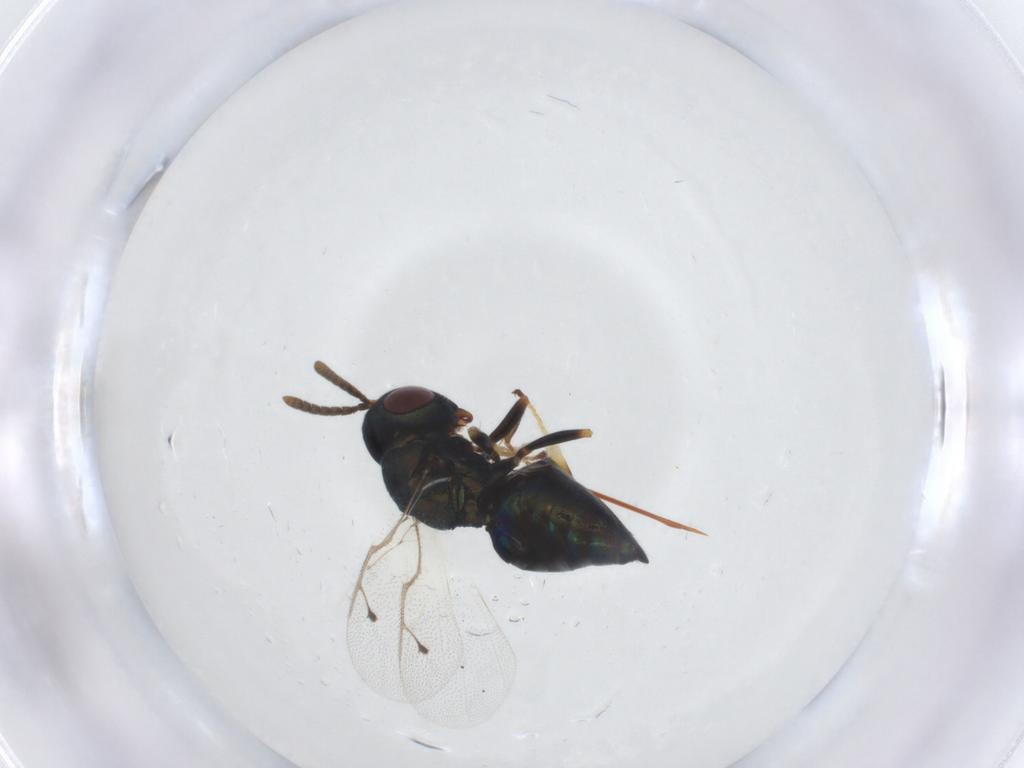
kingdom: Animalia
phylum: Arthropoda
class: Insecta
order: Hymenoptera
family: Pteromalidae
